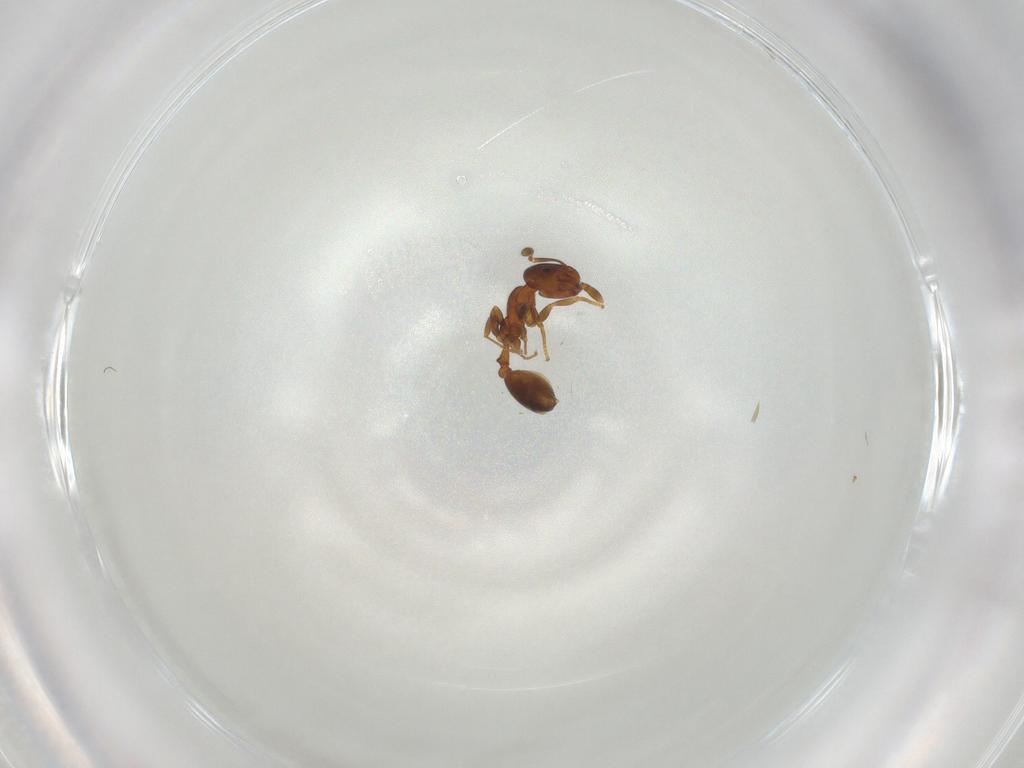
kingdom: Animalia
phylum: Arthropoda
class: Insecta
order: Hymenoptera
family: Formicidae
